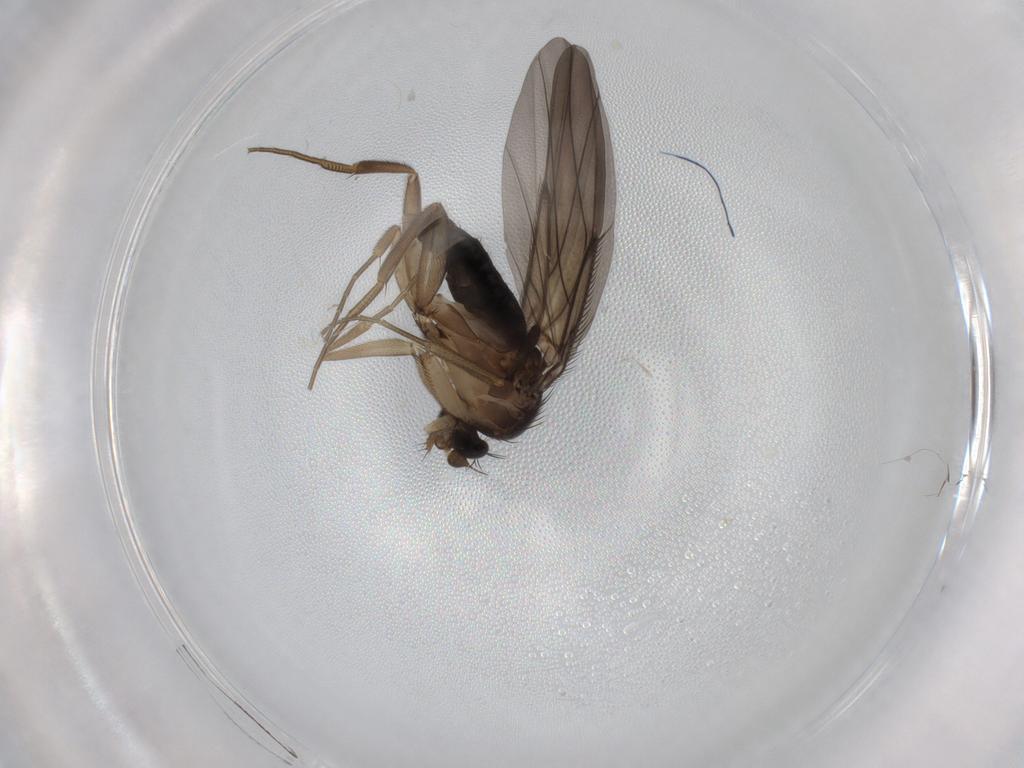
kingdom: Animalia
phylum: Arthropoda
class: Insecta
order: Diptera
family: Phoridae
